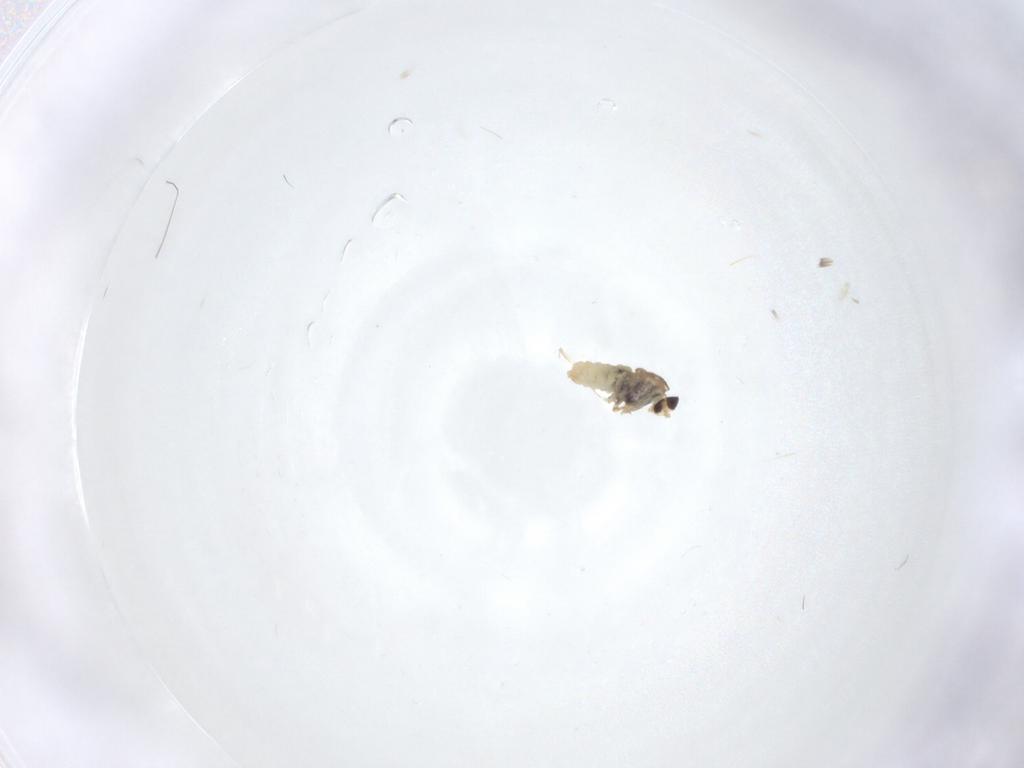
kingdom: Animalia
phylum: Arthropoda
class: Insecta
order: Diptera
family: Cecidomyiidae
